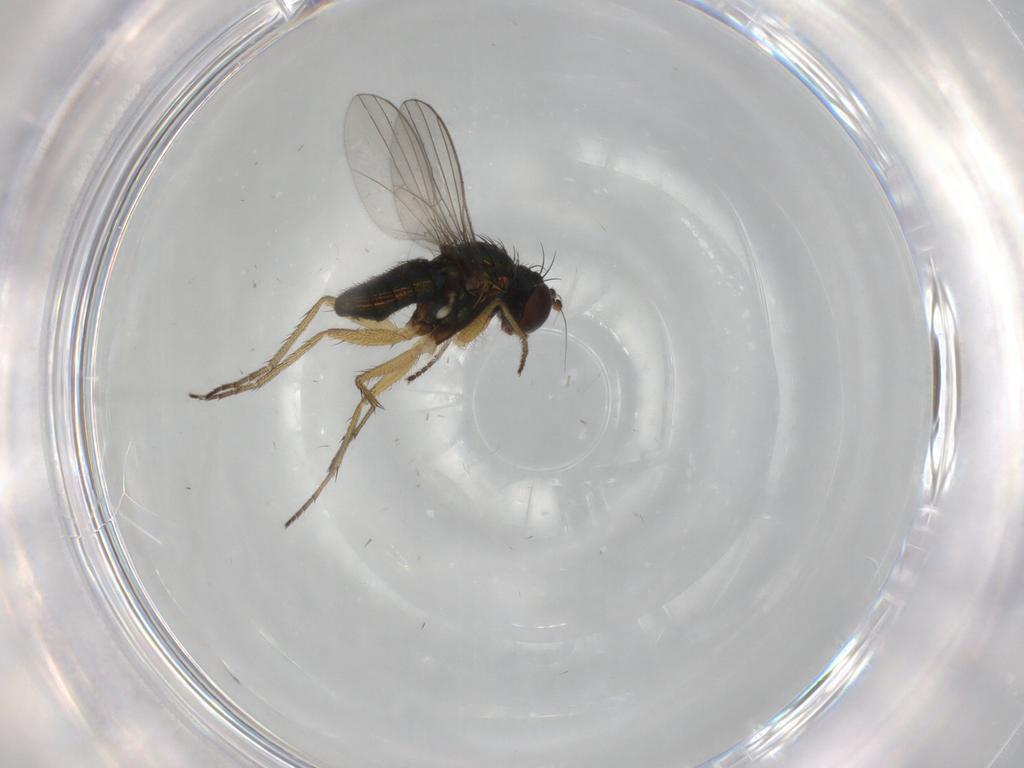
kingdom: Animalia
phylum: Arthropoda
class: Insecta
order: Diptera
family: Dolichopodidae
